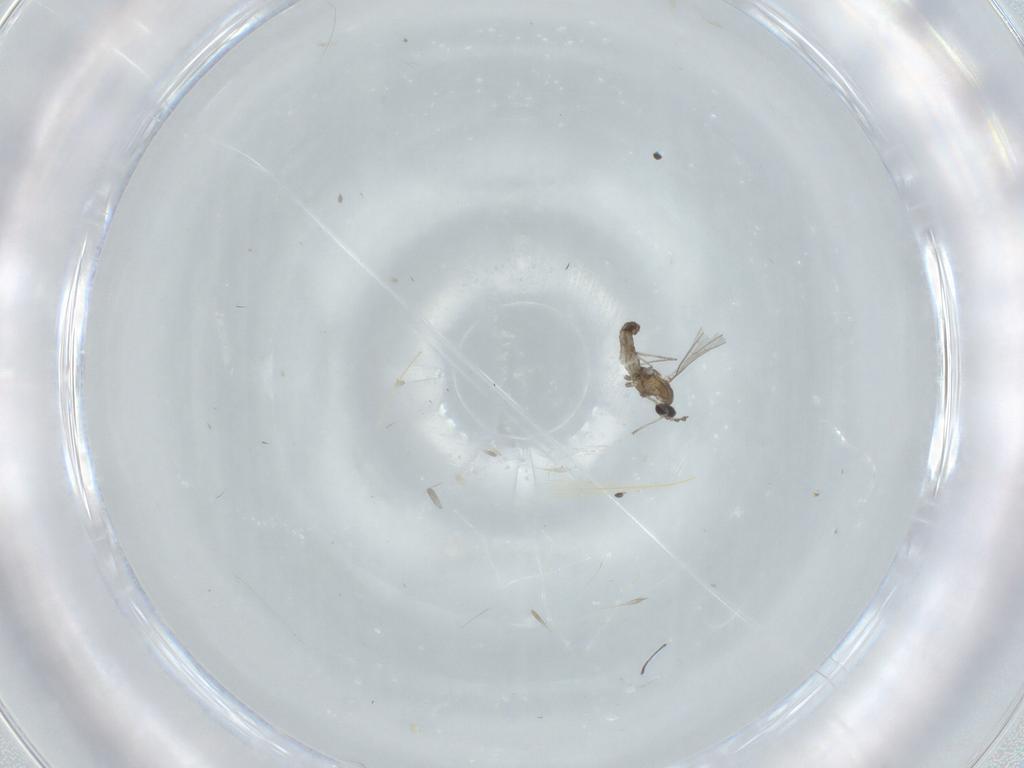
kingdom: Animalia
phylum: Arthropoda
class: Insecta
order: Diptera
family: Cecidomyiidae
